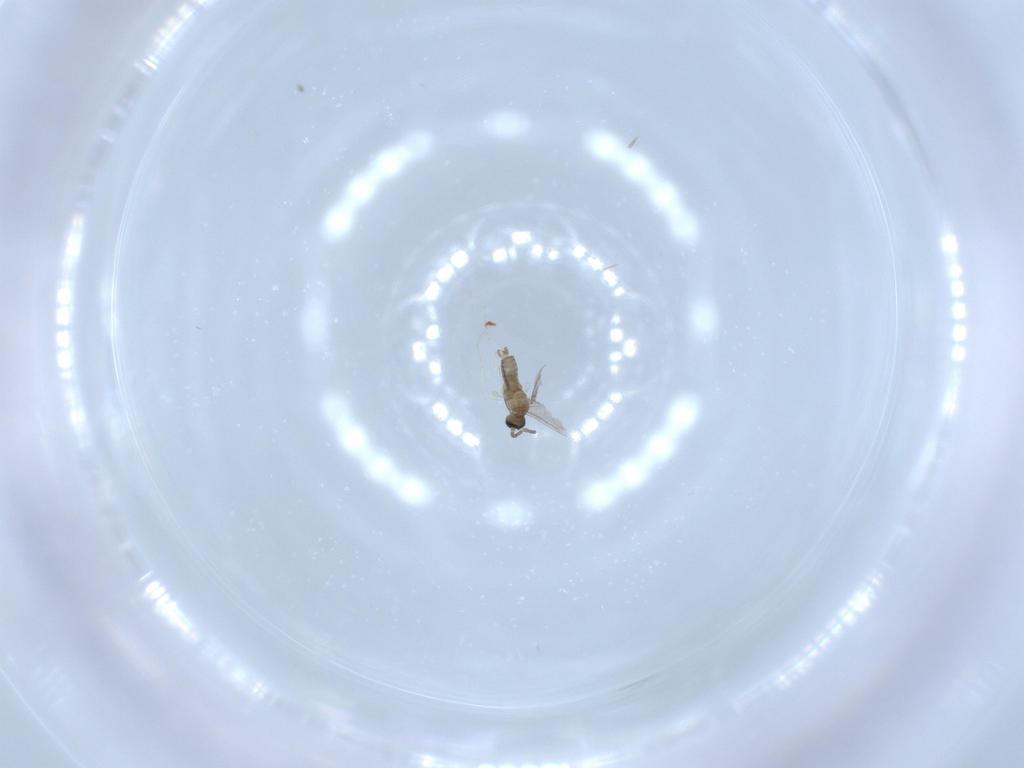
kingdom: Animalia
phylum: Arthropoda
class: Insecta
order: Diptera
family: Cecidomyiidae
